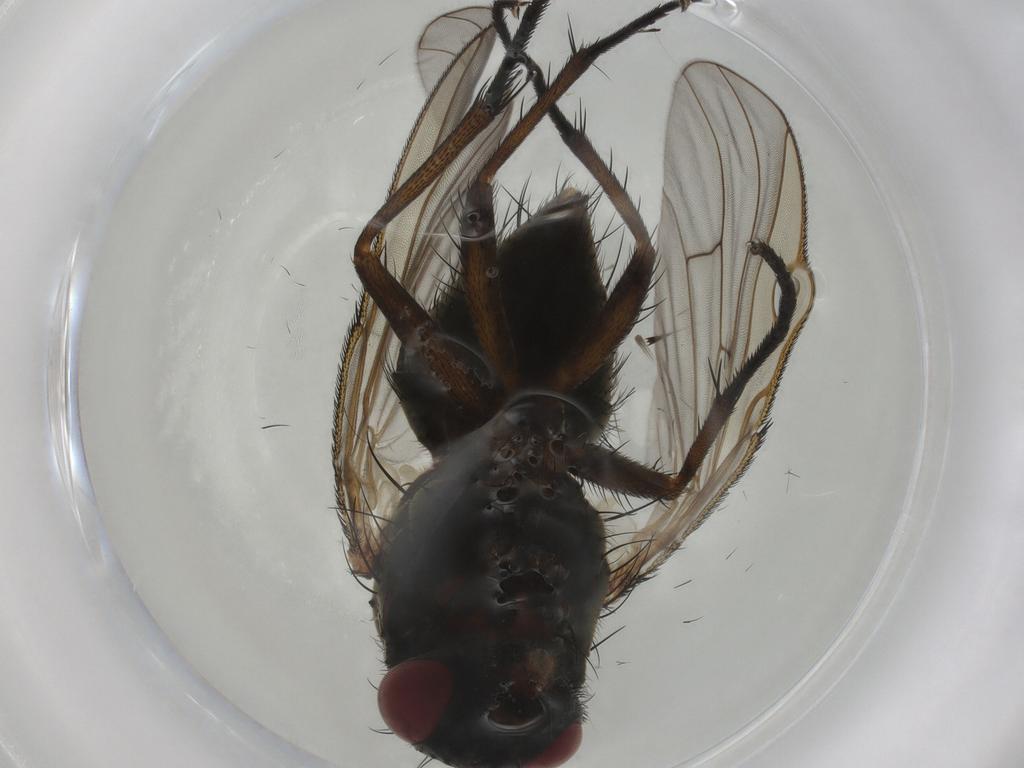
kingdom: Animalia
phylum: Arthropoda
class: Insecta
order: Diptera
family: Muscidae
